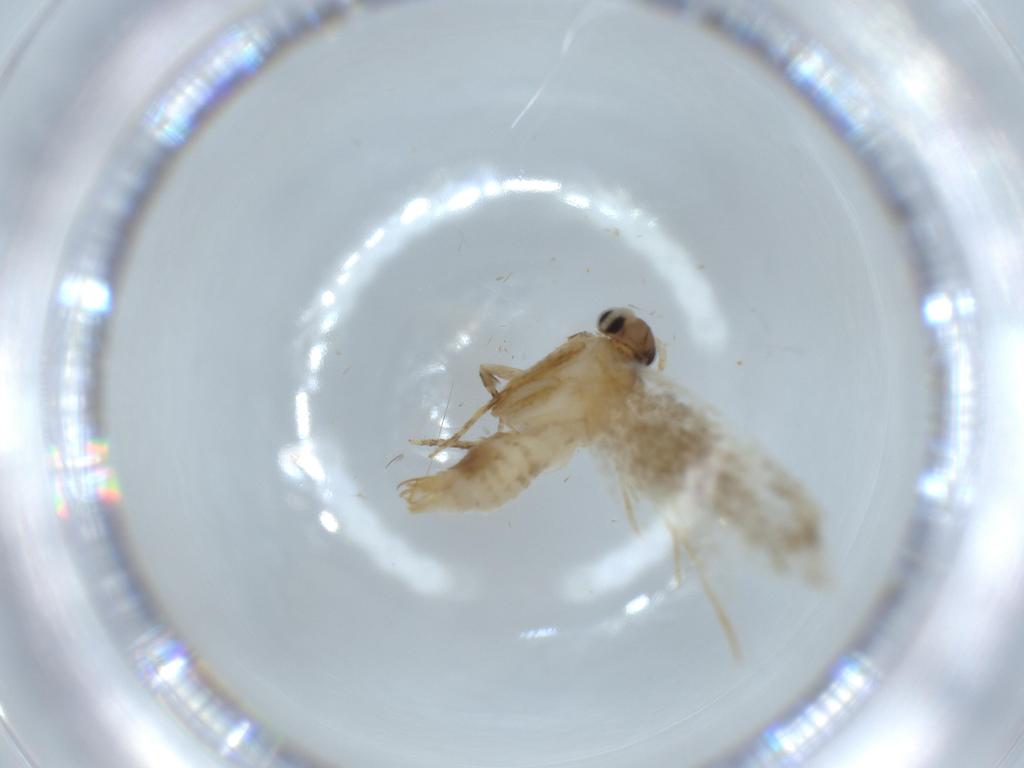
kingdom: Animalia
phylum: Arthropoda
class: Insecta
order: Lepidoptera
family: Tineidae
